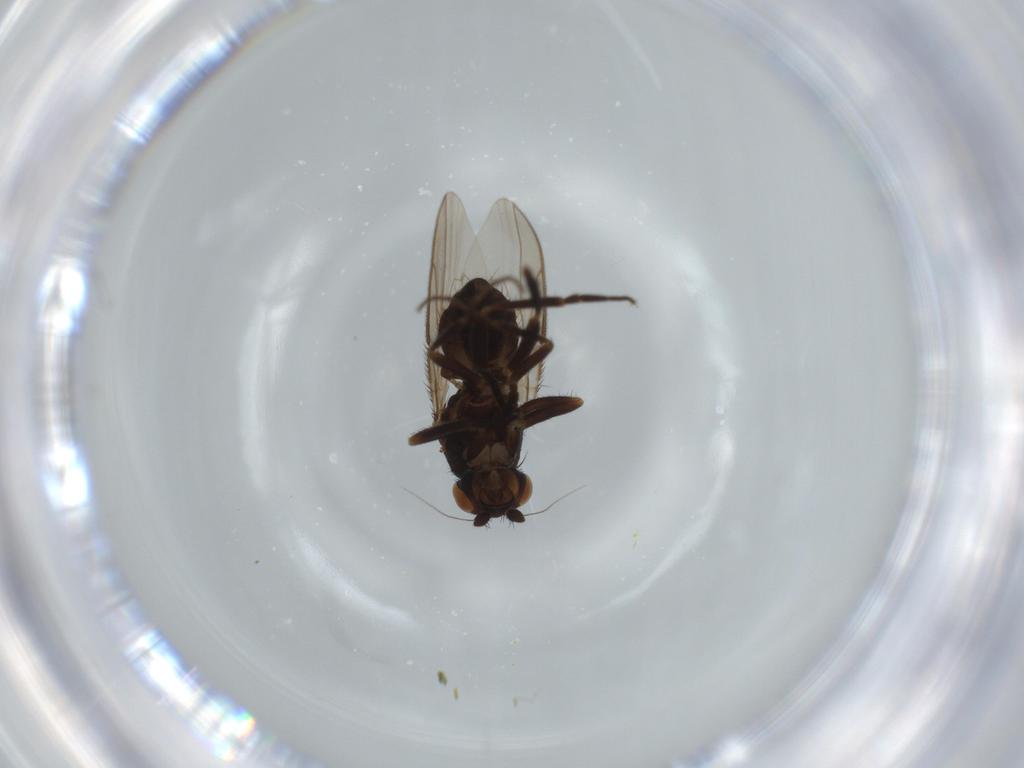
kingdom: Animalia
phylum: Arthropoda
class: Insecta
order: Diptera
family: Sphaeroceridae
